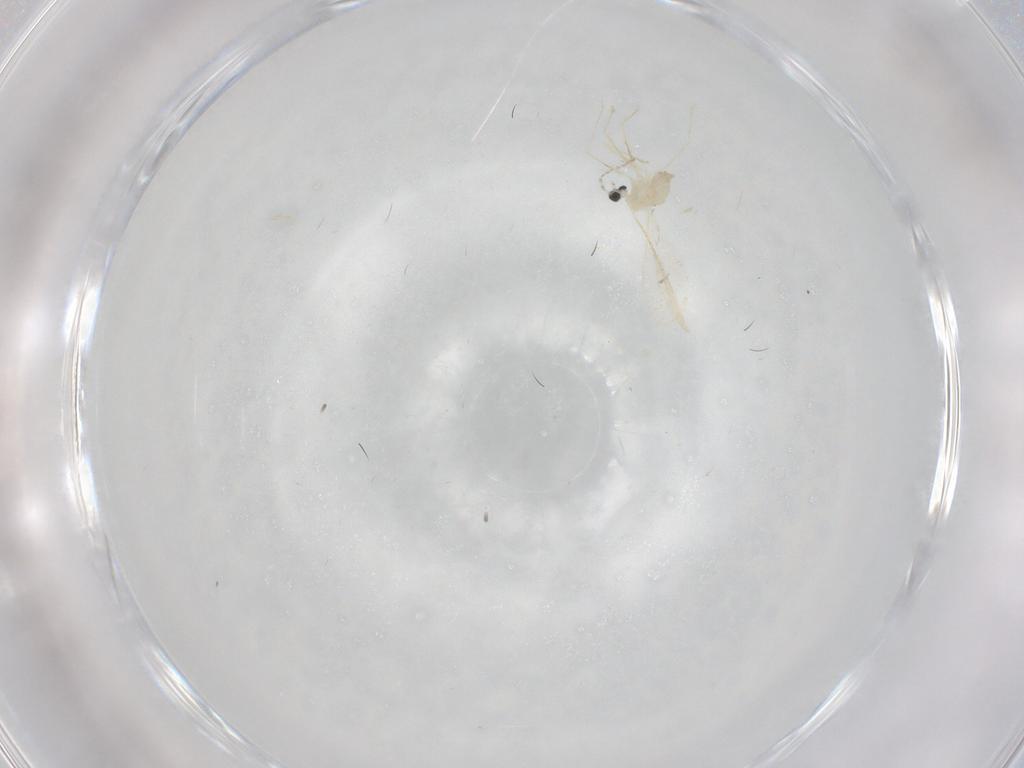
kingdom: Animalia
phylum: Arthropoda
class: Insecta
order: Diptera
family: Cecidomyiidae
